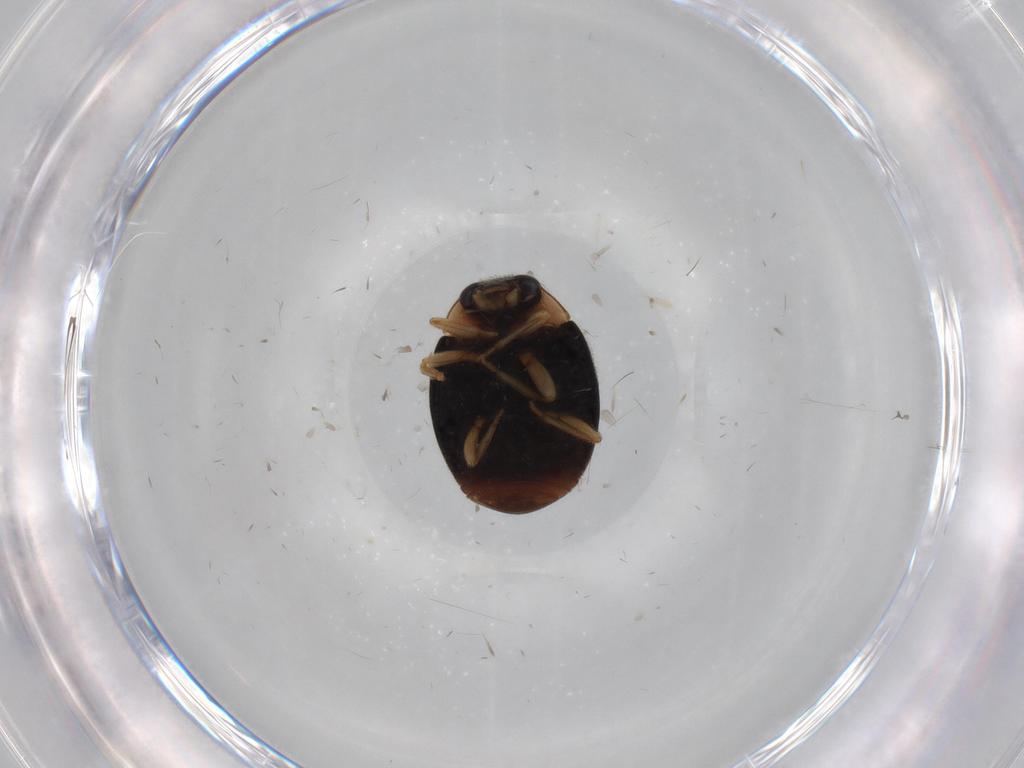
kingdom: Animalia
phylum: Arthropoda
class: Insecta
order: Coleoptera
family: Coccinellidae
